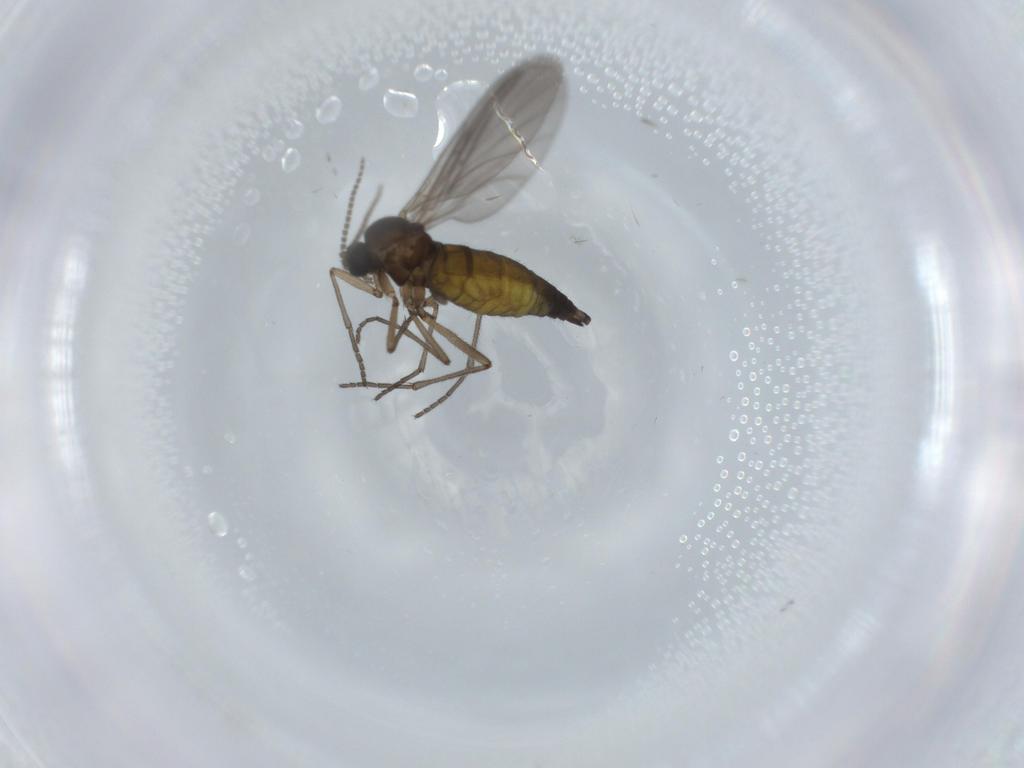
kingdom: Animalia
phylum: Arthropoda
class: Insecta
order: Diptera
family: Sciaridae
